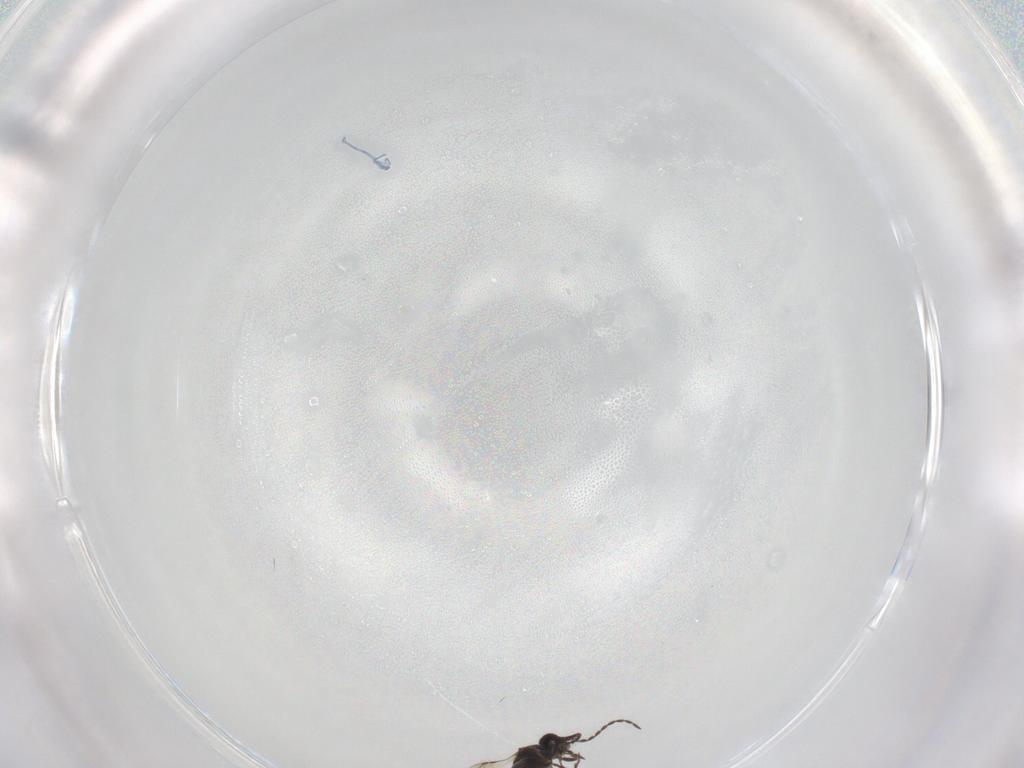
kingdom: Animalia
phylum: Arthropoda
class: Insecta
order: Hymenoptera
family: Ceraphronidae
